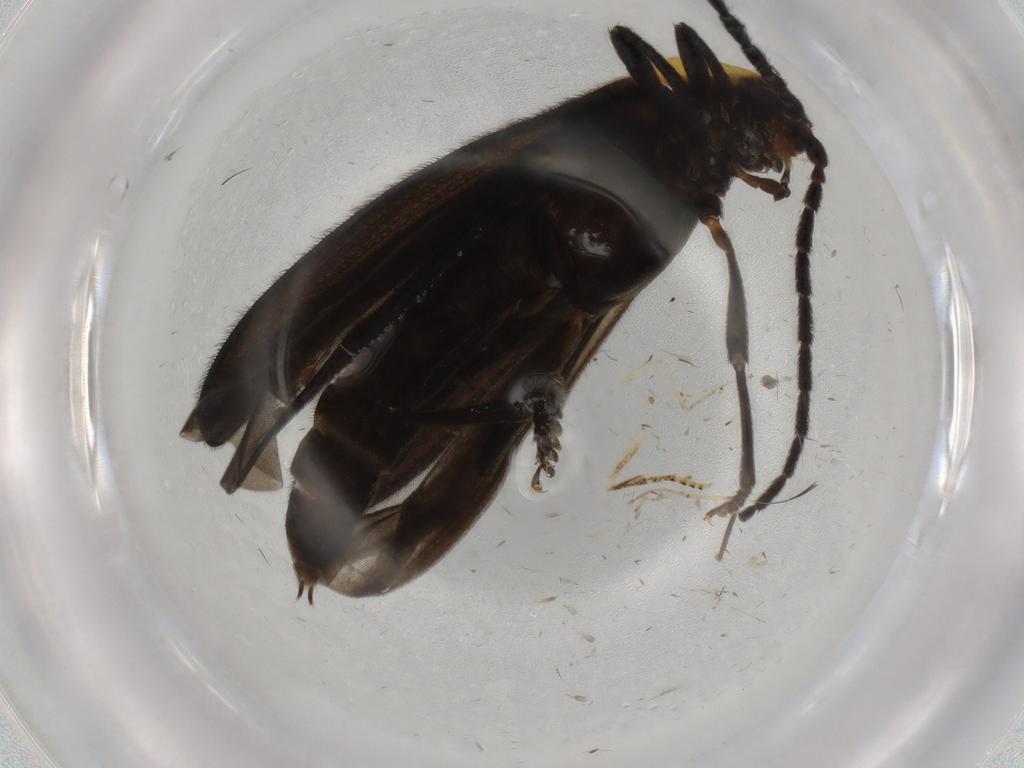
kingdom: Animalia
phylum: Arthropoda
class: Insecta
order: Coleoptera
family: Lycidae
